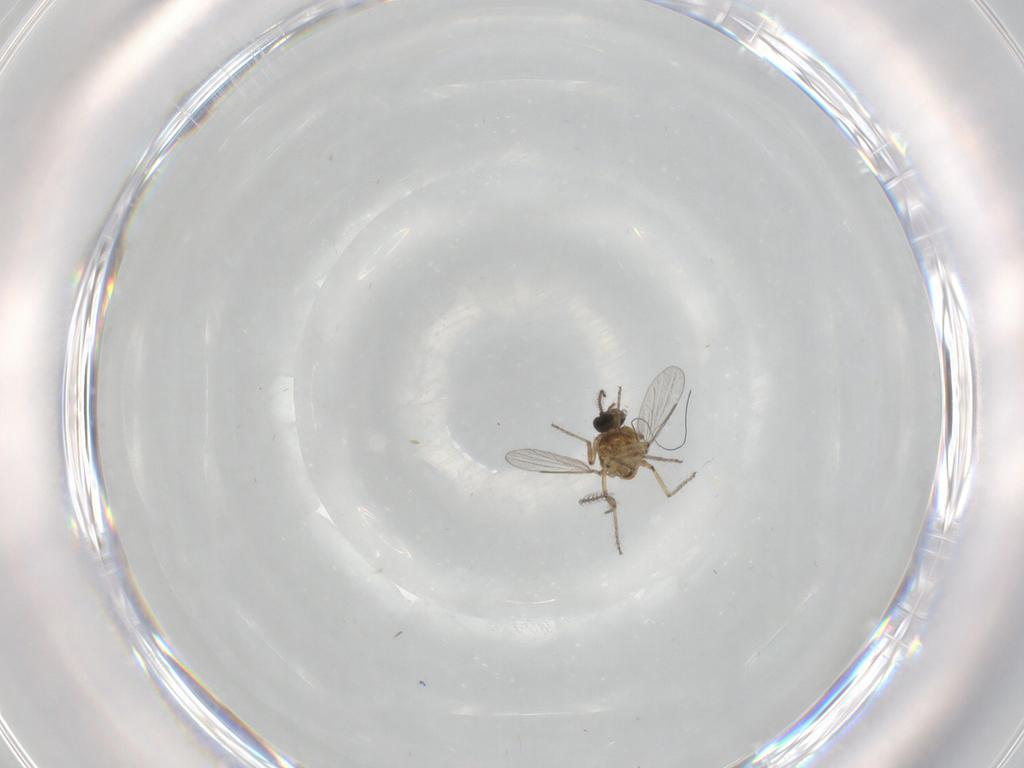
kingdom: Animalia
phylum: Arthropoda
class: Insecta
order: Diptera
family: Ceratopogonidae
